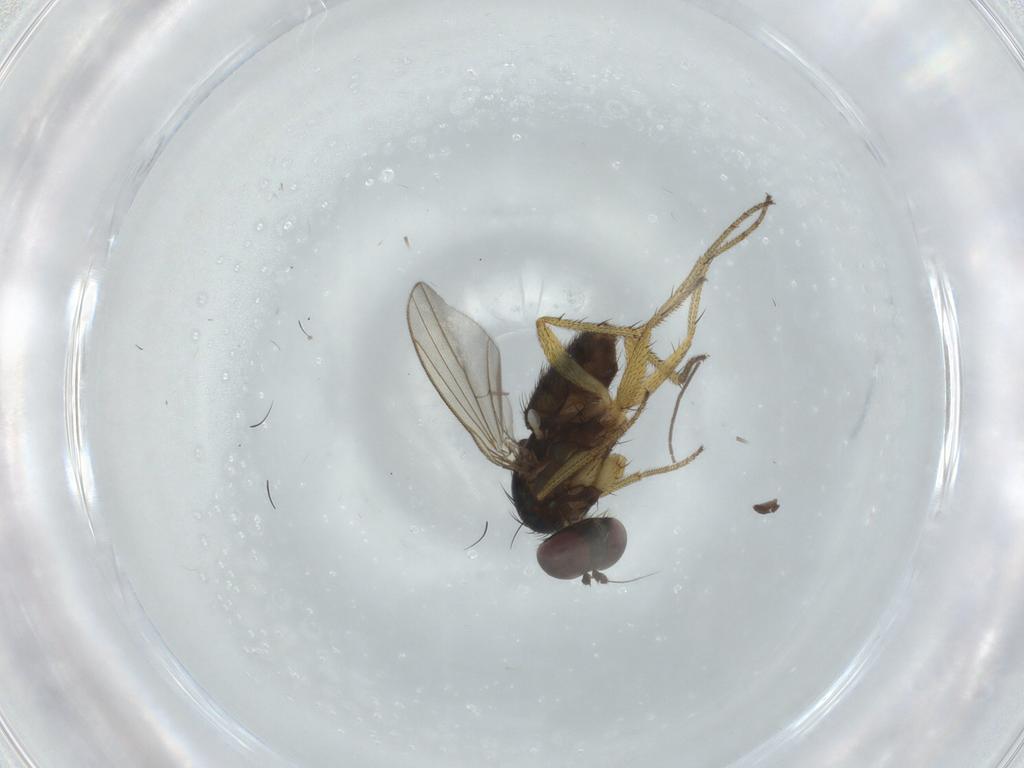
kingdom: Animalia
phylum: Arthropoda
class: Insecta
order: Diptera
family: Dolichopodidae
